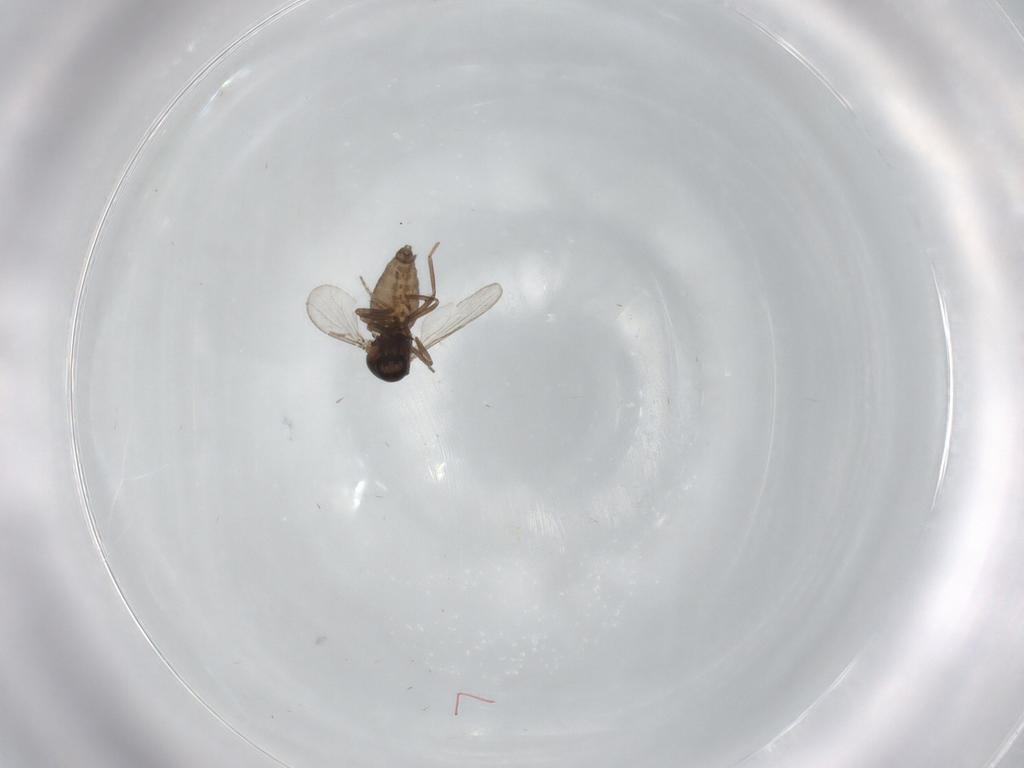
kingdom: Animalia
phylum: Arthropoda
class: Insecta
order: Diptera
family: Ceratopogonidae
